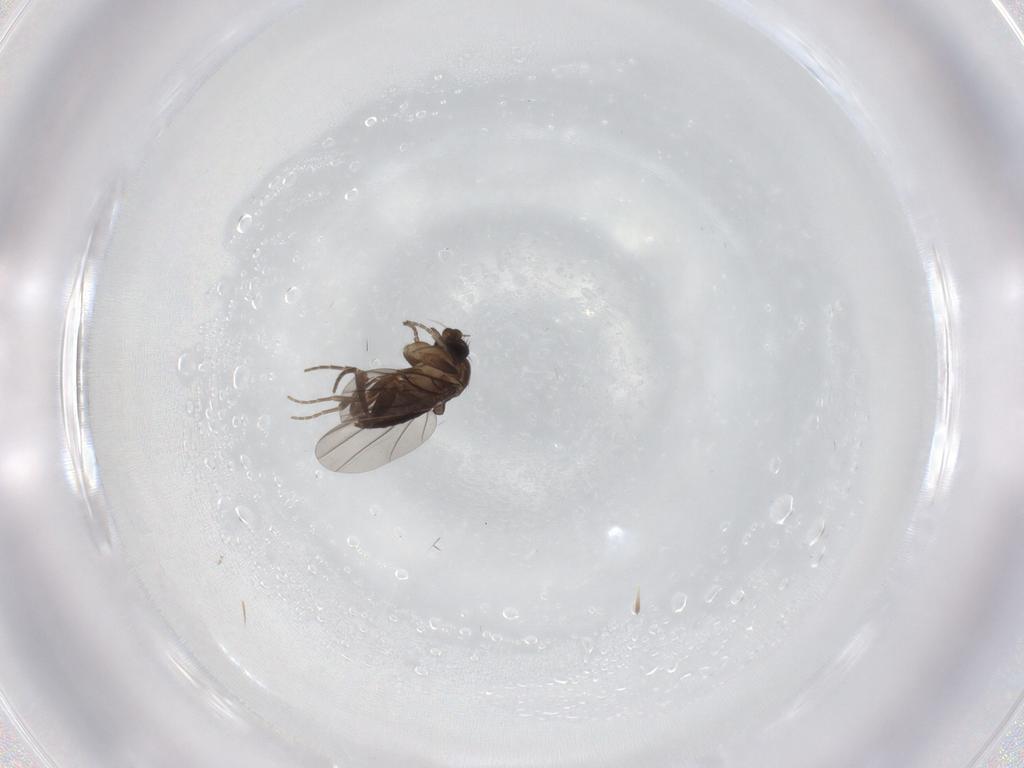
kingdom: Animalia
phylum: Arthropoda
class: Insecta
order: Diptera
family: Phoridae
